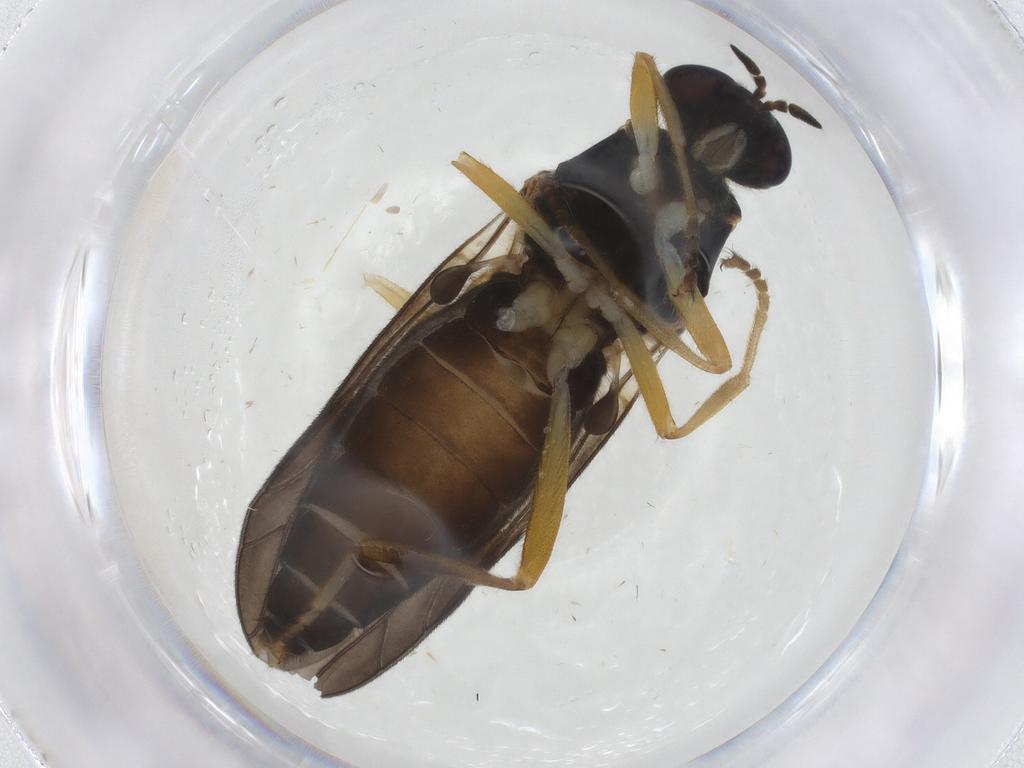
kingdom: Animalia
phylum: Arthropoda
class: Insecta
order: Diptera
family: Stratiomyidae
